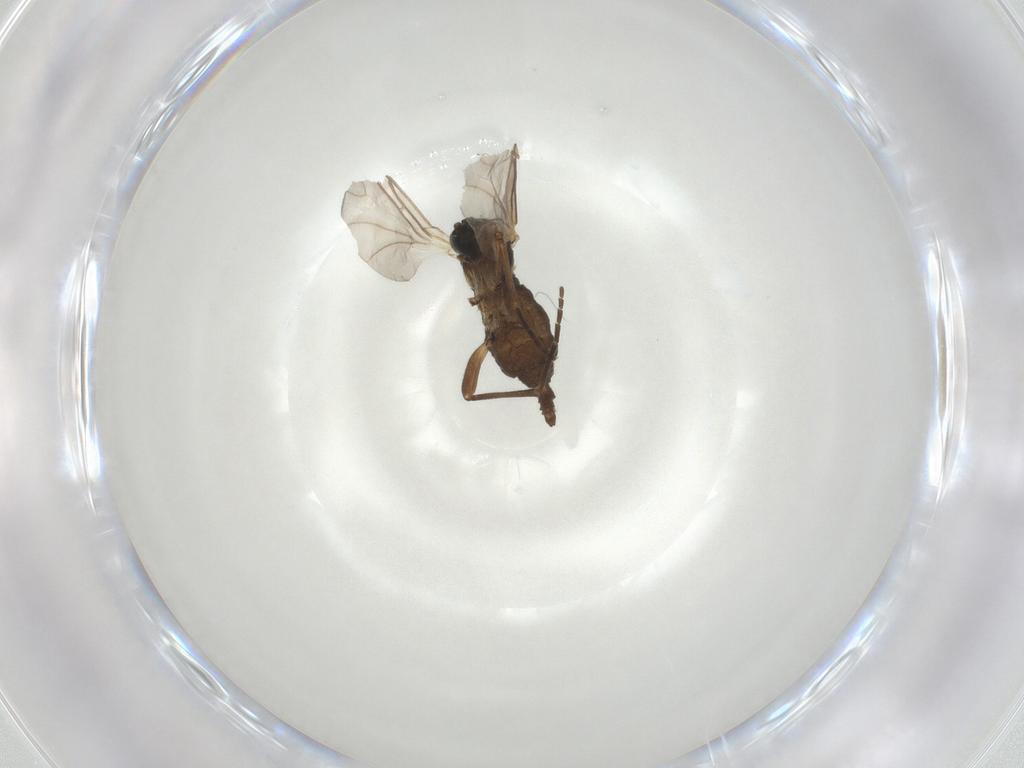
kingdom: Animalia
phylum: Arthropoda
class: Insecta
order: Diptera
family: Sciaridae
